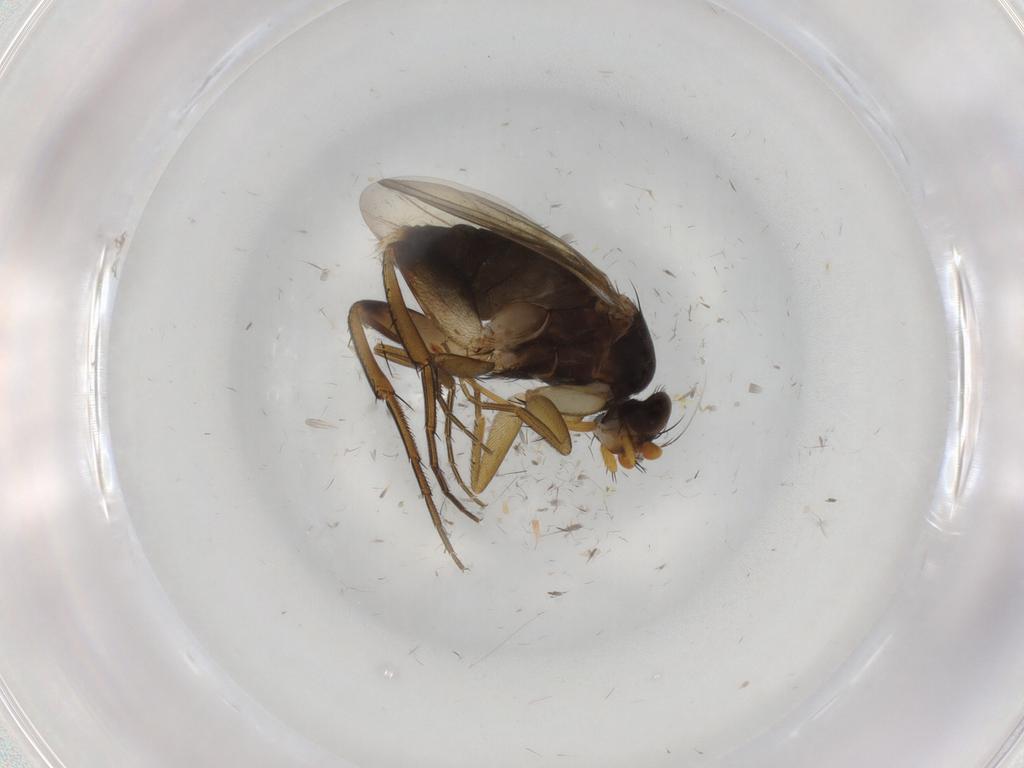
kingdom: Animalia
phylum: Arthropoda
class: Insecta
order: Diptera
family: Phoridae
